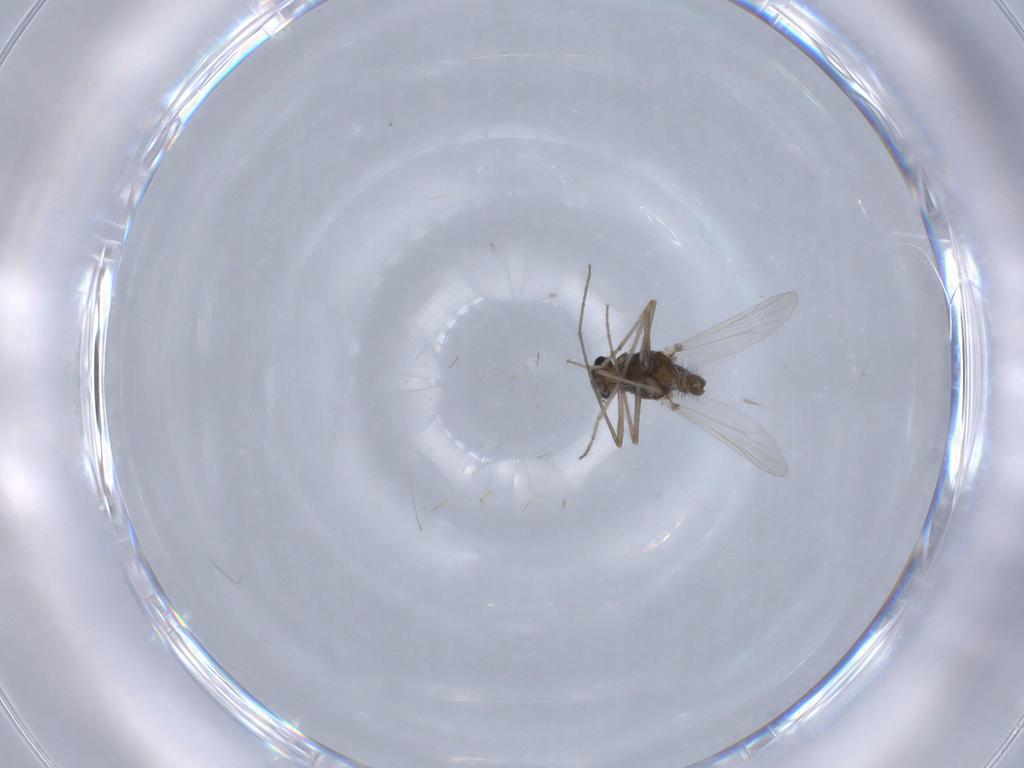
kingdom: Animalia
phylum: Arthropoda
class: Insecta
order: Diptera
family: Chironomidae
